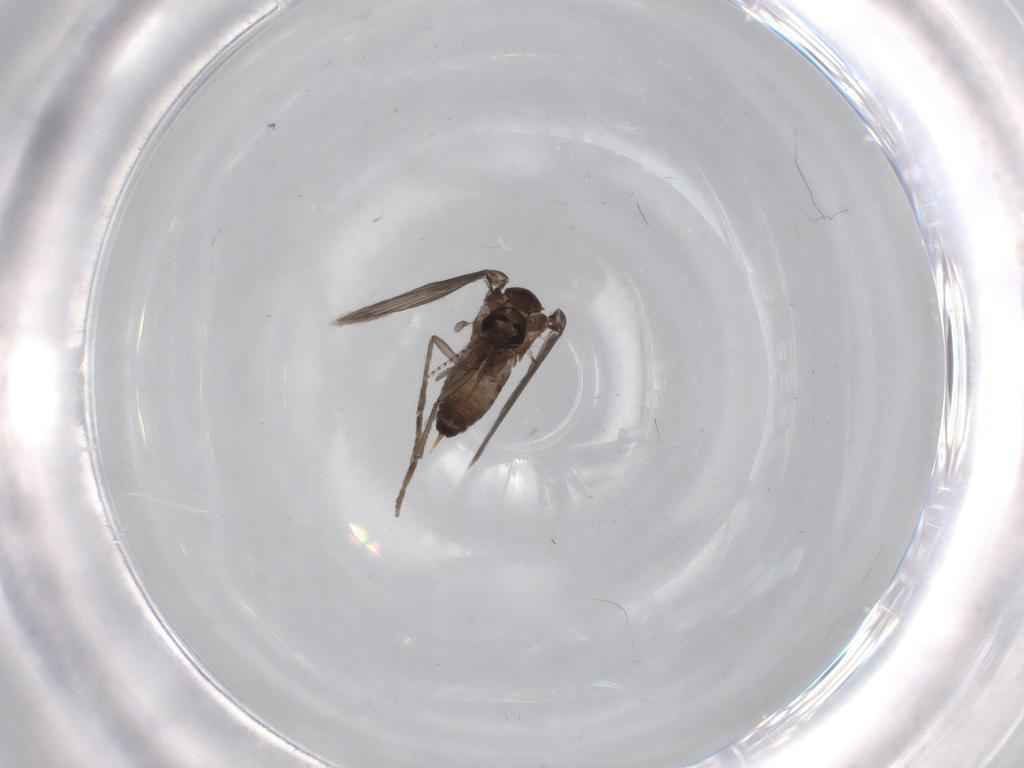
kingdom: Animalia
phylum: Arthropoda
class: Insecta
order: Diptera
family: Psychodidae
